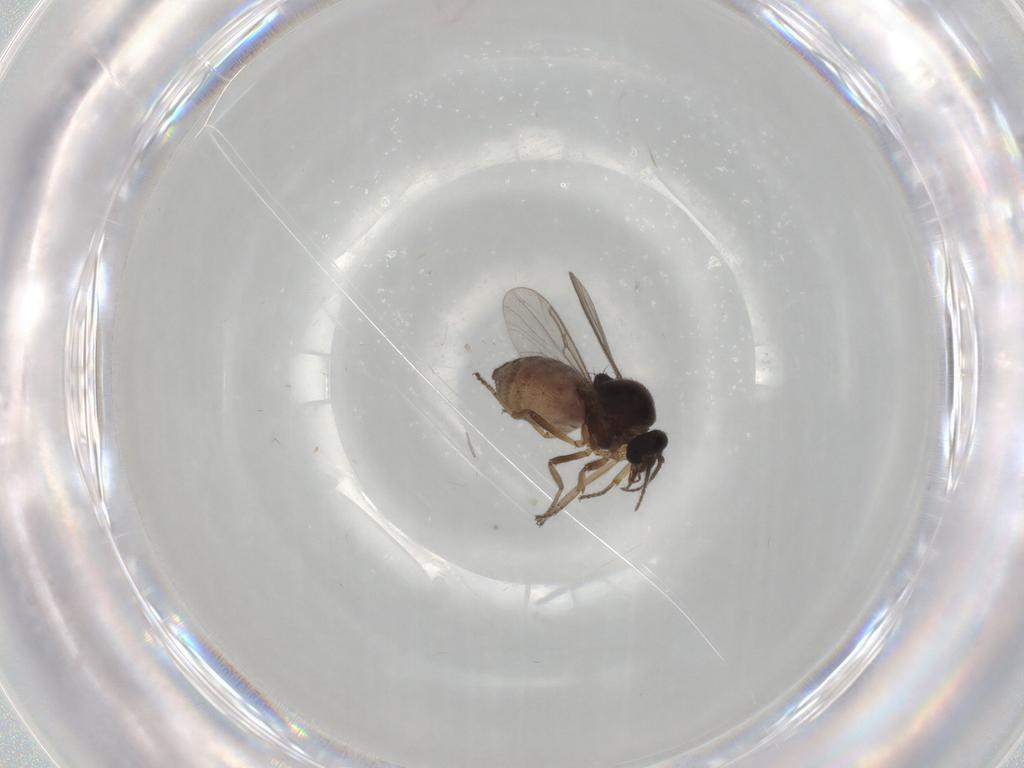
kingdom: Animalia
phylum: Arthropoda
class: Insecta
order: Diptera
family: Ceratopogonidae
